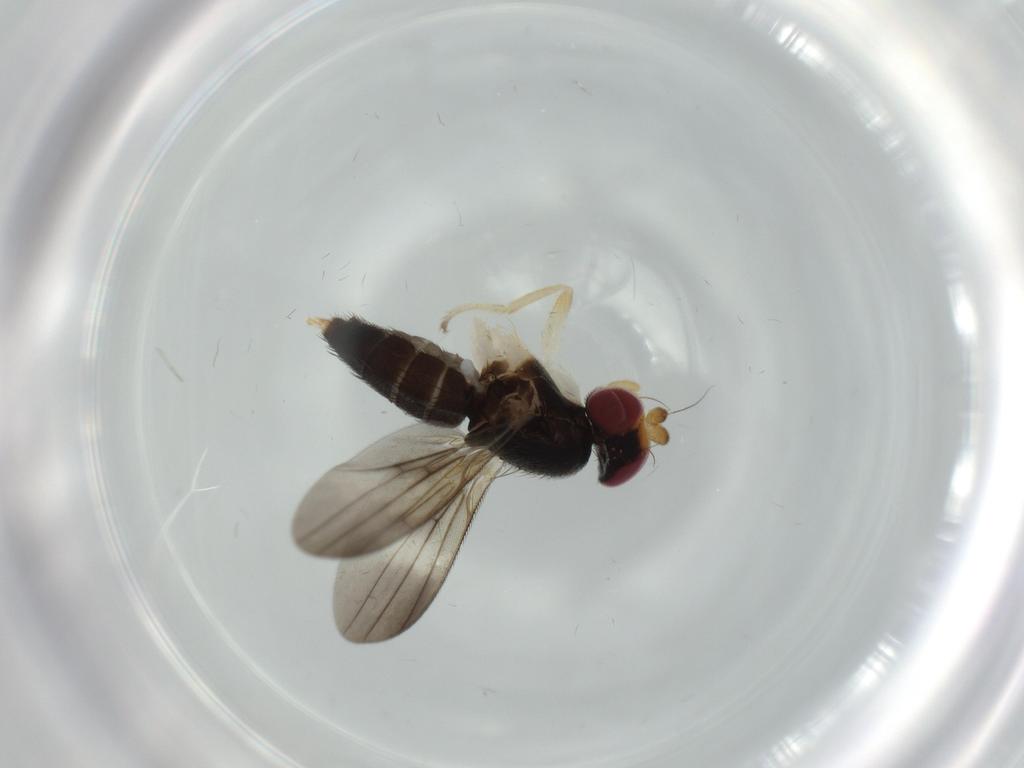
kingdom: Animalia
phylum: Arthropoda
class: Insecta
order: Diptera
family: Clusiidae
